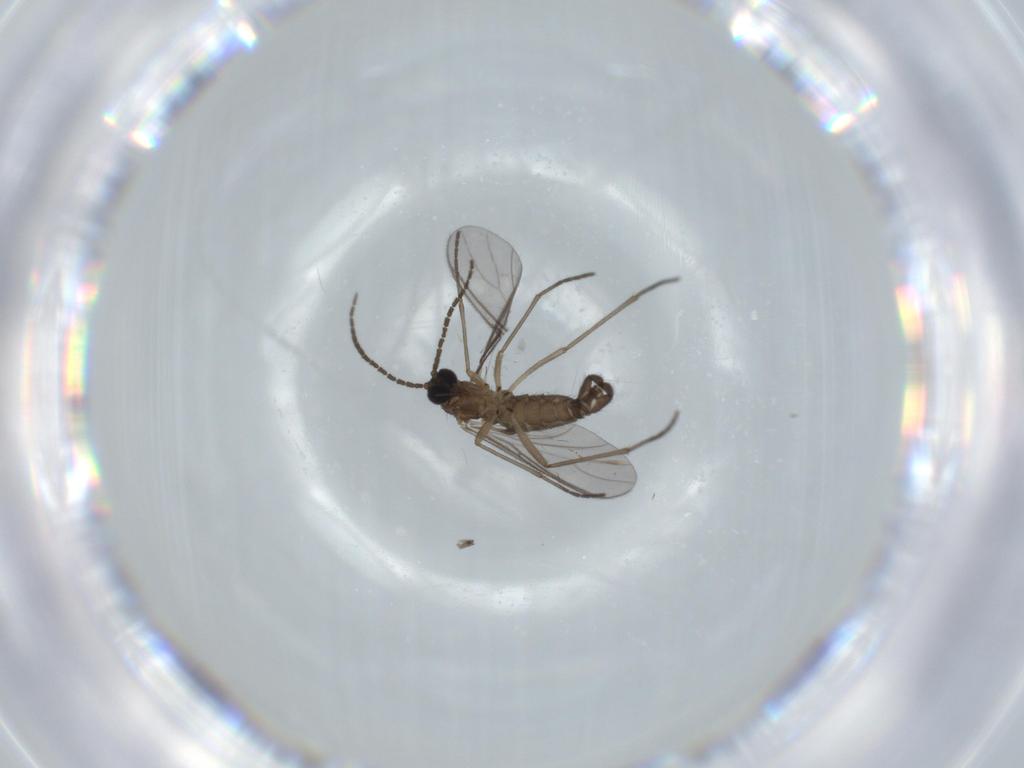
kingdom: Animalia
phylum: Arthropoda
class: Insecta
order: Diptera
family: Sciaridae
